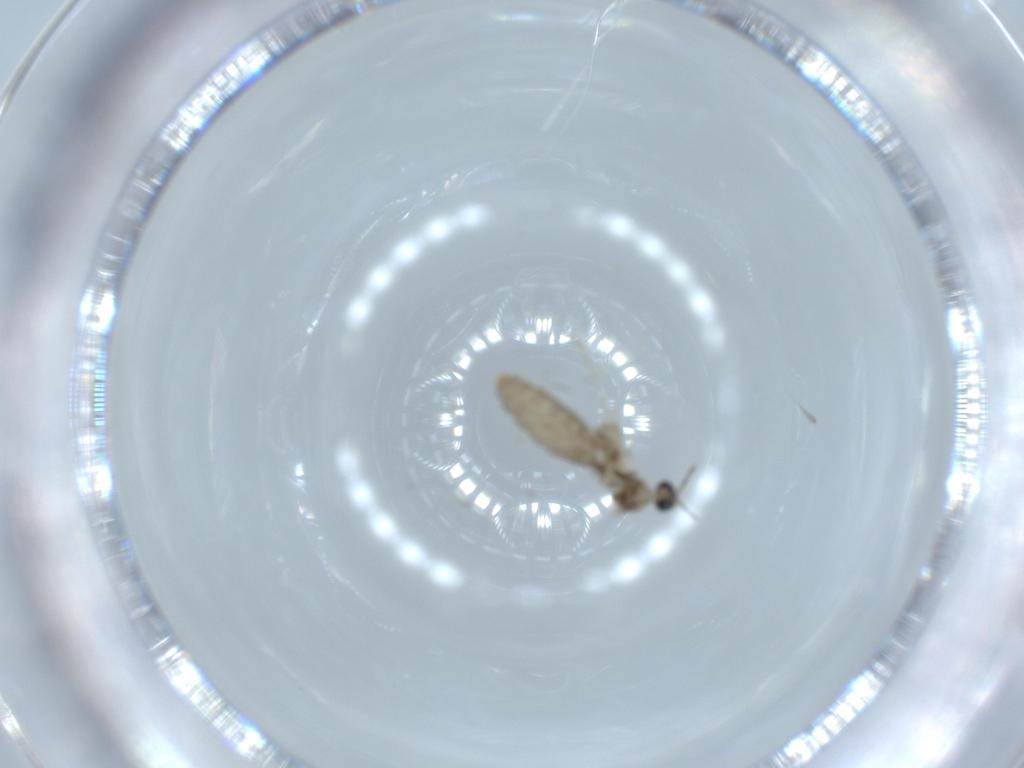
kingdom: Animalia
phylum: Arthropoda
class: Insecta
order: Diptera
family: Cecidomyiidae
